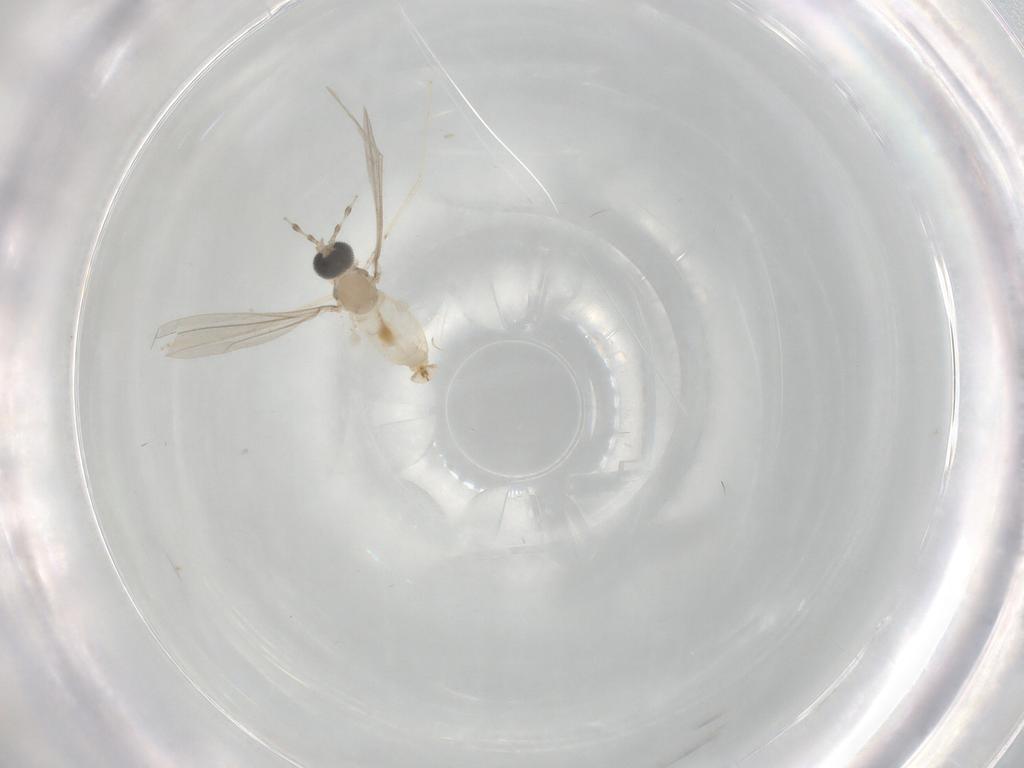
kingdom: Animalia
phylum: Arthropoda
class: Insecta
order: Diptera
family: Cecidomyiidae
